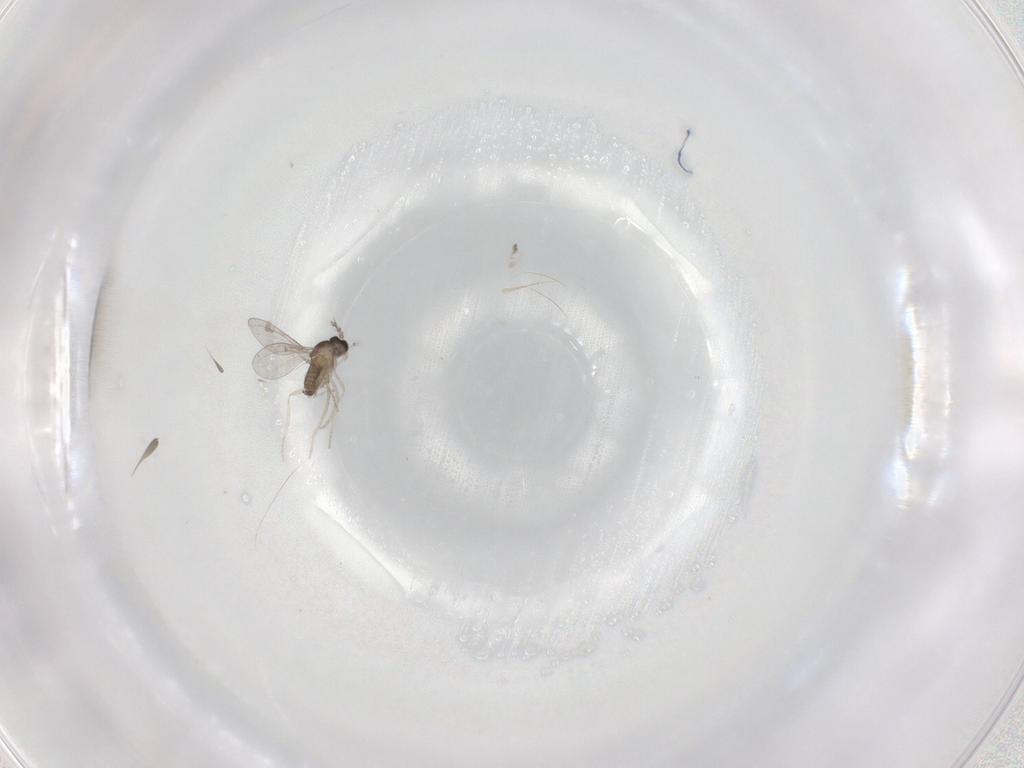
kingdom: Animalia
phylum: Arthropoda
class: Insecta
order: Diptera
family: Cecidomyiidae
